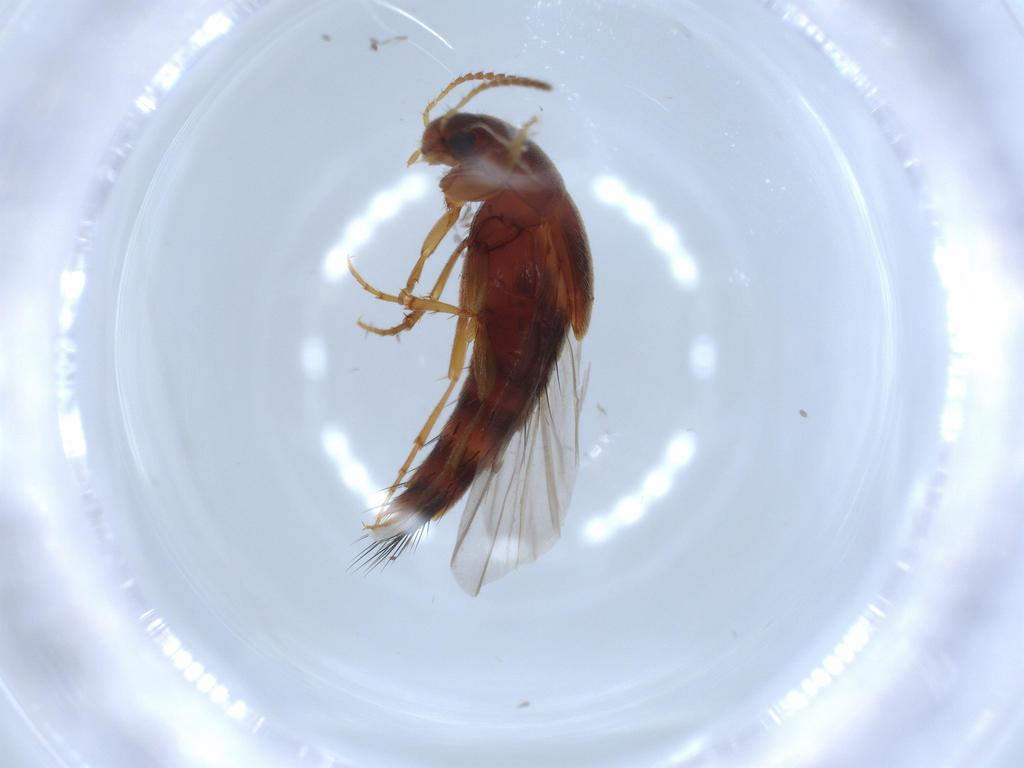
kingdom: Animalia
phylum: Arthropoda
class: Insecta
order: Coleoptera
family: Staphylinidae
